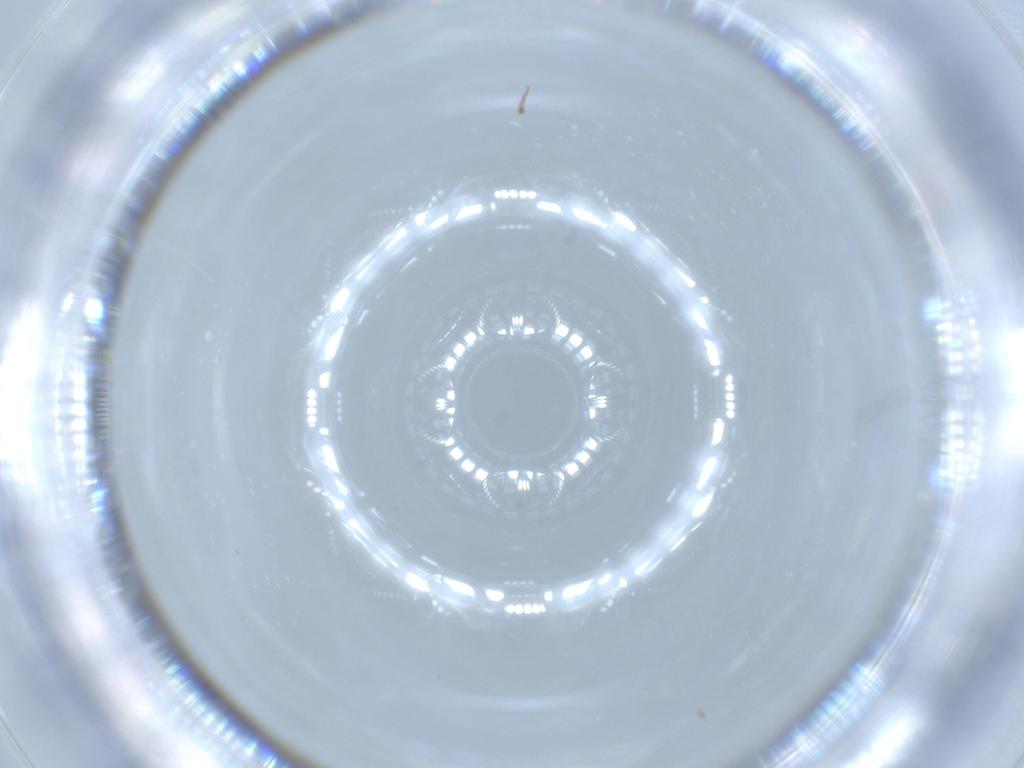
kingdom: Animalia
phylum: Arthropoda
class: Insecta
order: Diptera
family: Cecidomyiidae
